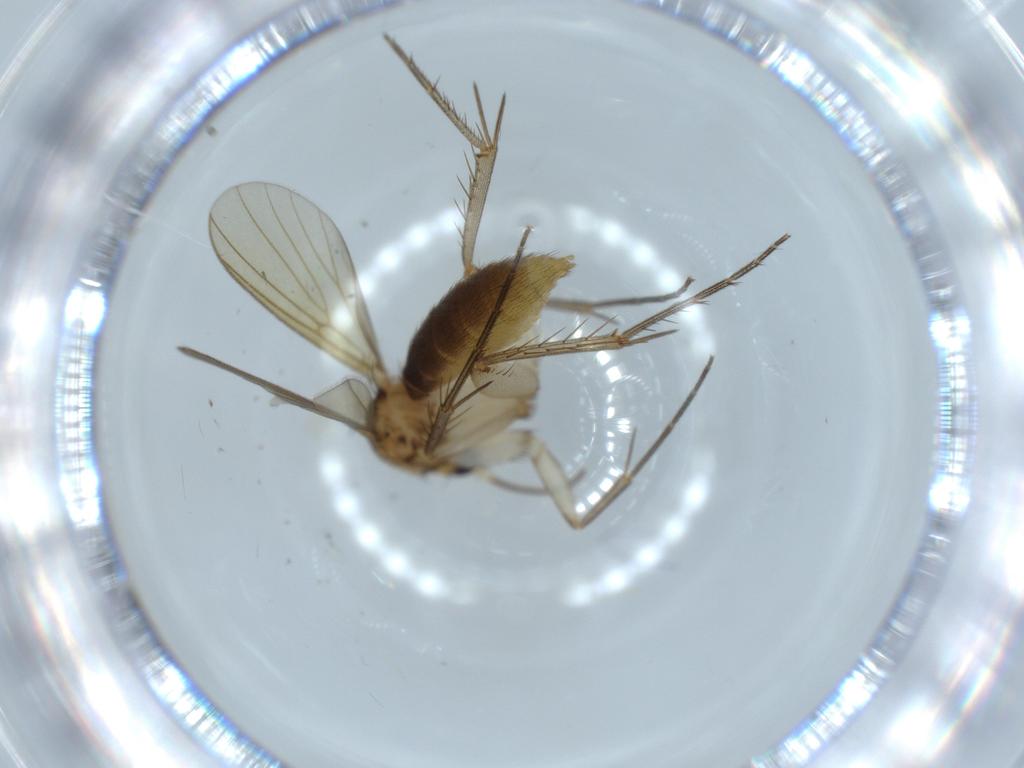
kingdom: Animalia
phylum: Arthropoda
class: Insecta
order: Diptera
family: Mycetophilidae
